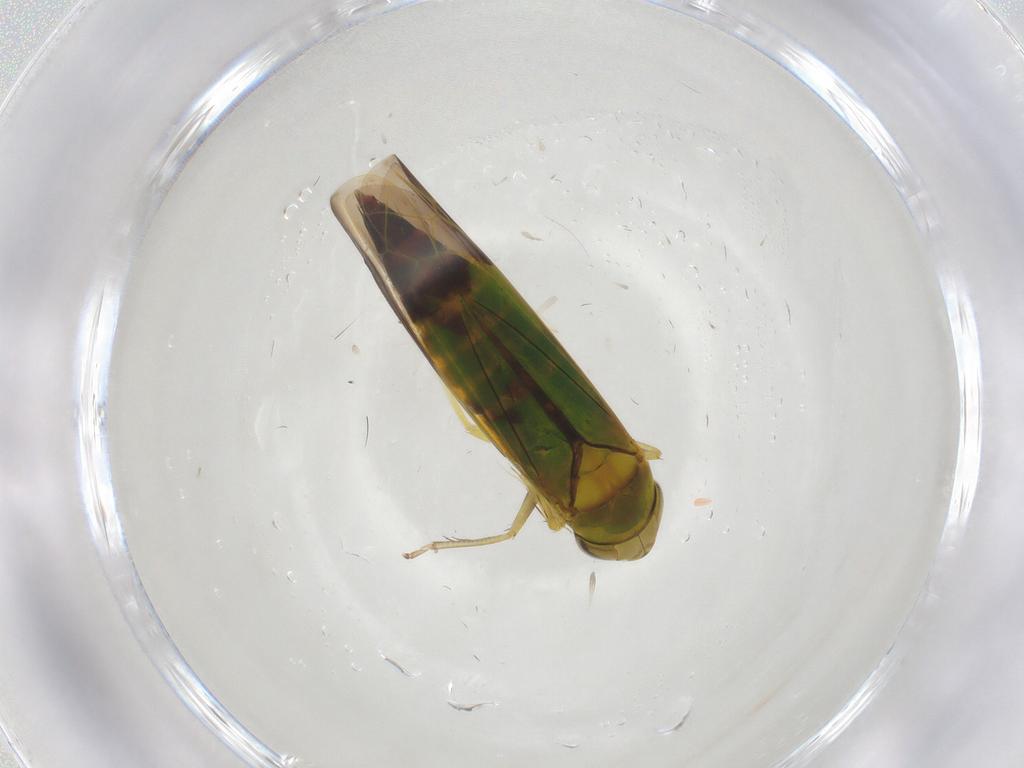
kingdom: Animalia
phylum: Arthropoda
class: Insecta
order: Hemiptera
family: Cicadellidae
